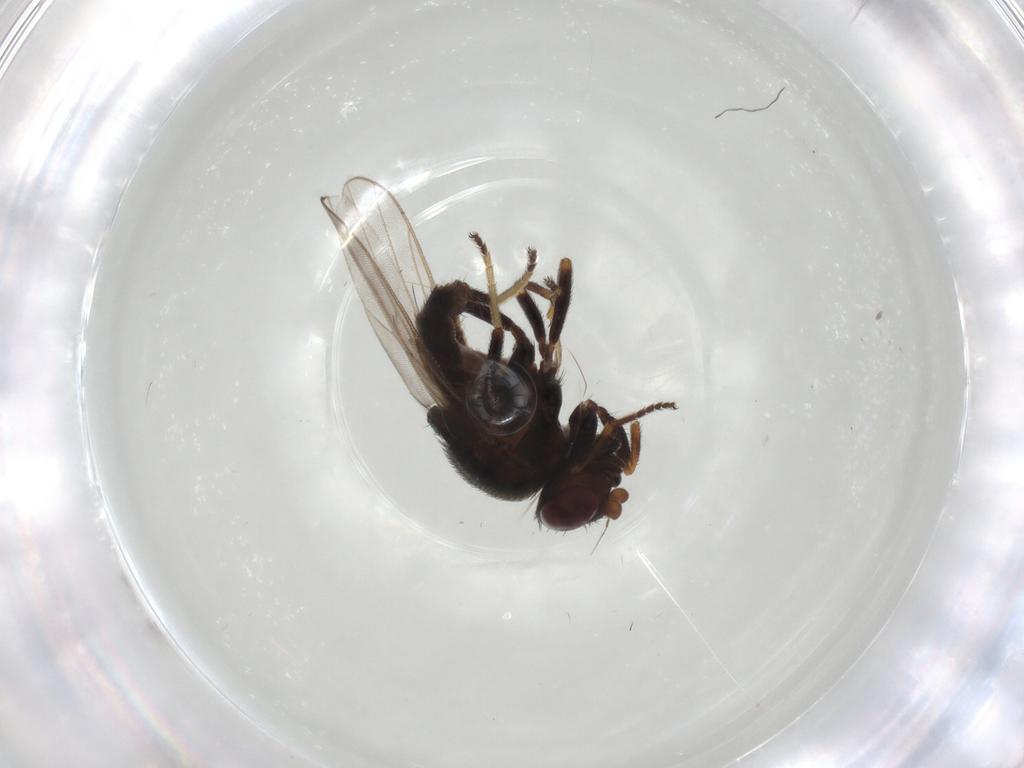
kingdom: Animalia
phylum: Arthropoda
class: Insecta
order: Diptera
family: Chloropidae
